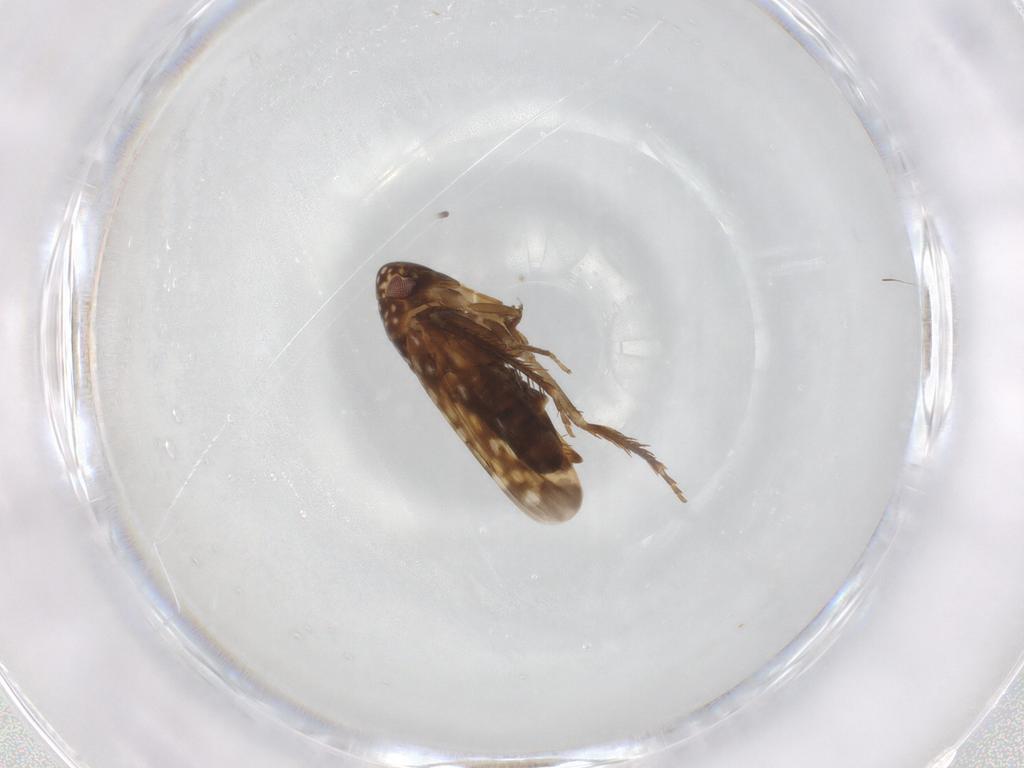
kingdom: Animalia
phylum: Arthropoda
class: Insecta
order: Hemiptera
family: Cicadellidae
